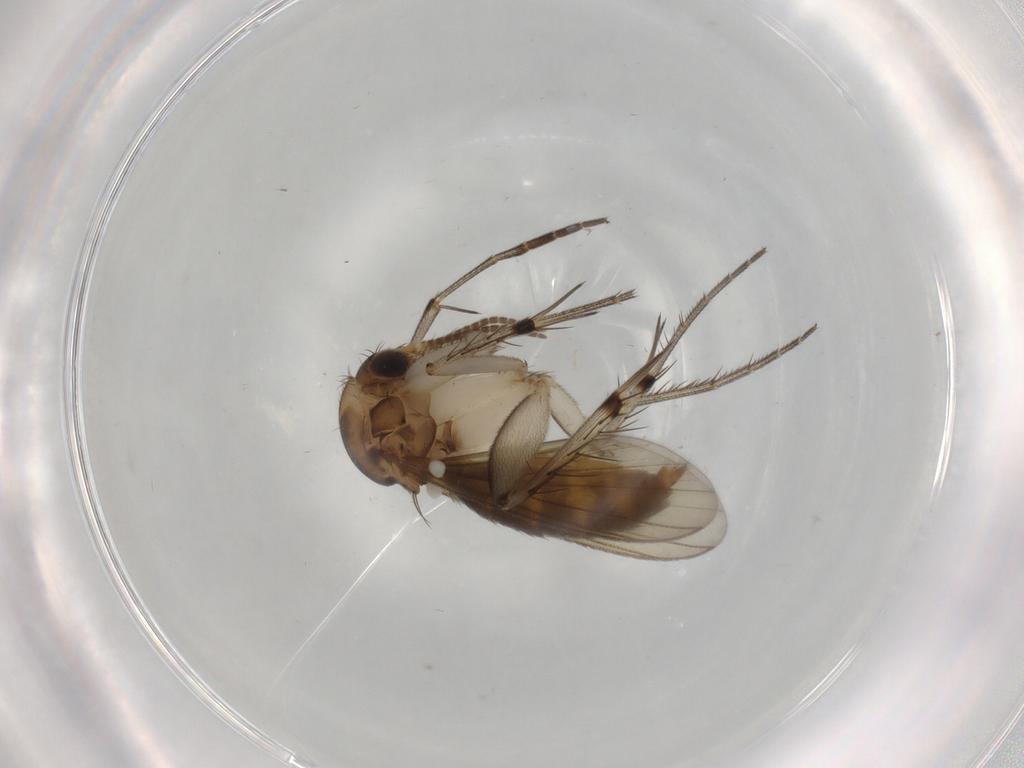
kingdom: Animalia
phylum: Arthropoda
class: Insecta
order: Diptera
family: Mycetophilidae
